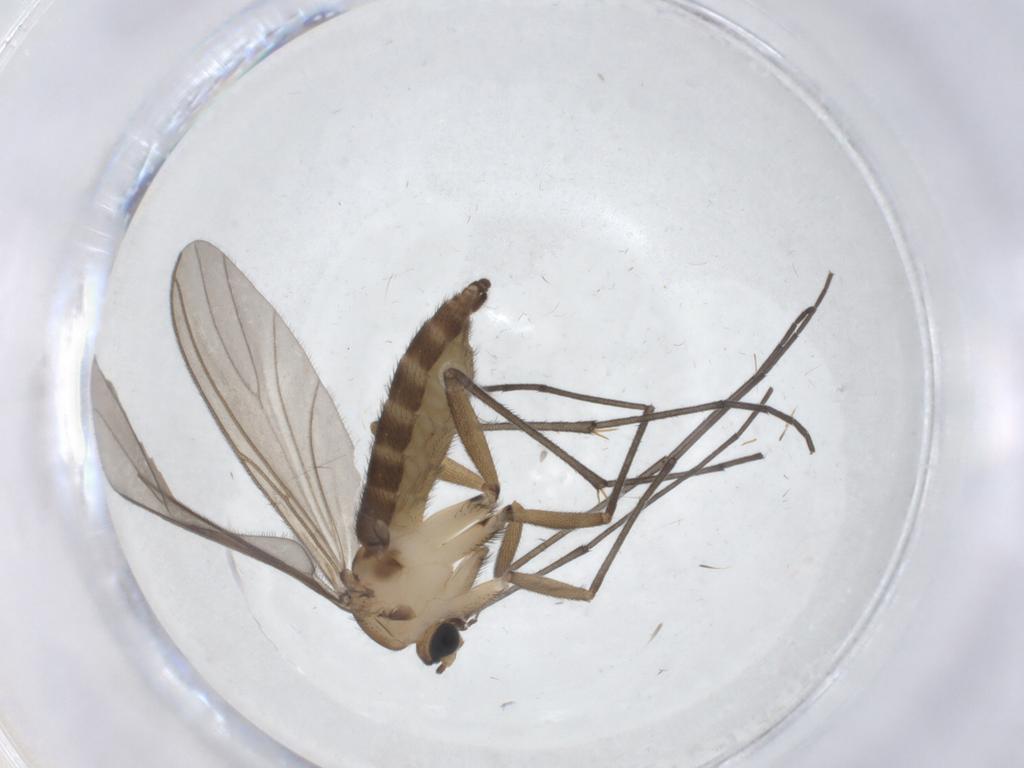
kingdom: Animalia
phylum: Arthropoda
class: Insecta
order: Diptera
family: Sciaridae
